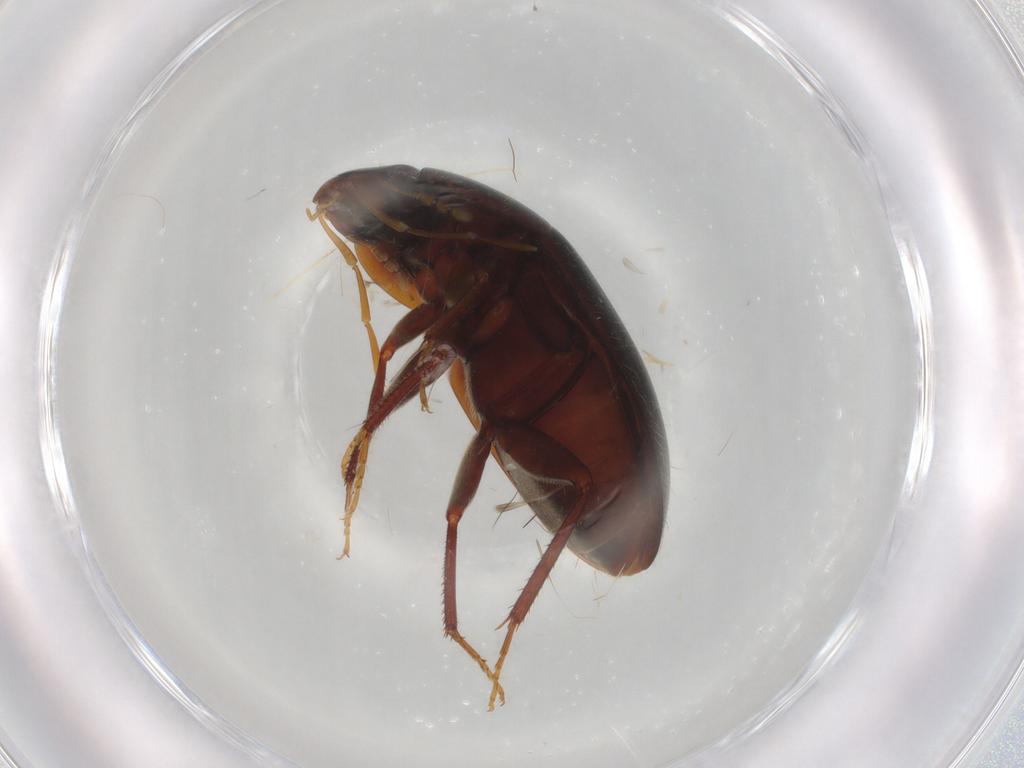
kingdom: Animalia
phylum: Arthropoda
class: Insecta
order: Coleoptera
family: Hydrophilidae
